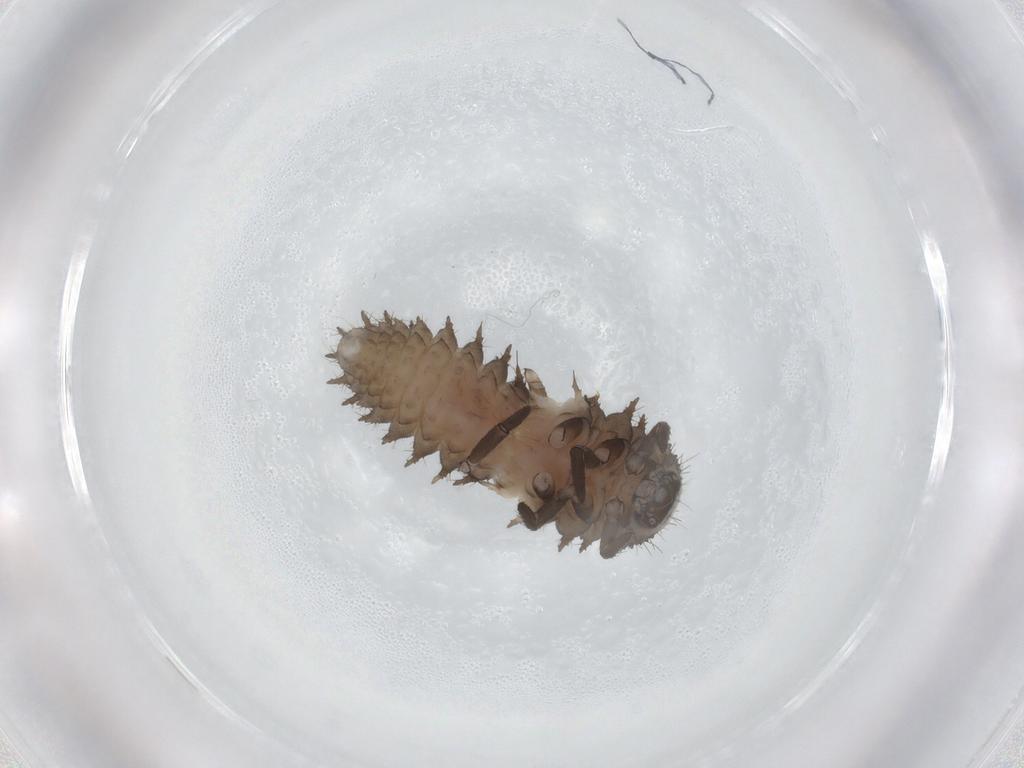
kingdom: Animalia
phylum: Arthropoda
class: Insecta
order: Coleoptera
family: Coccinellidae
